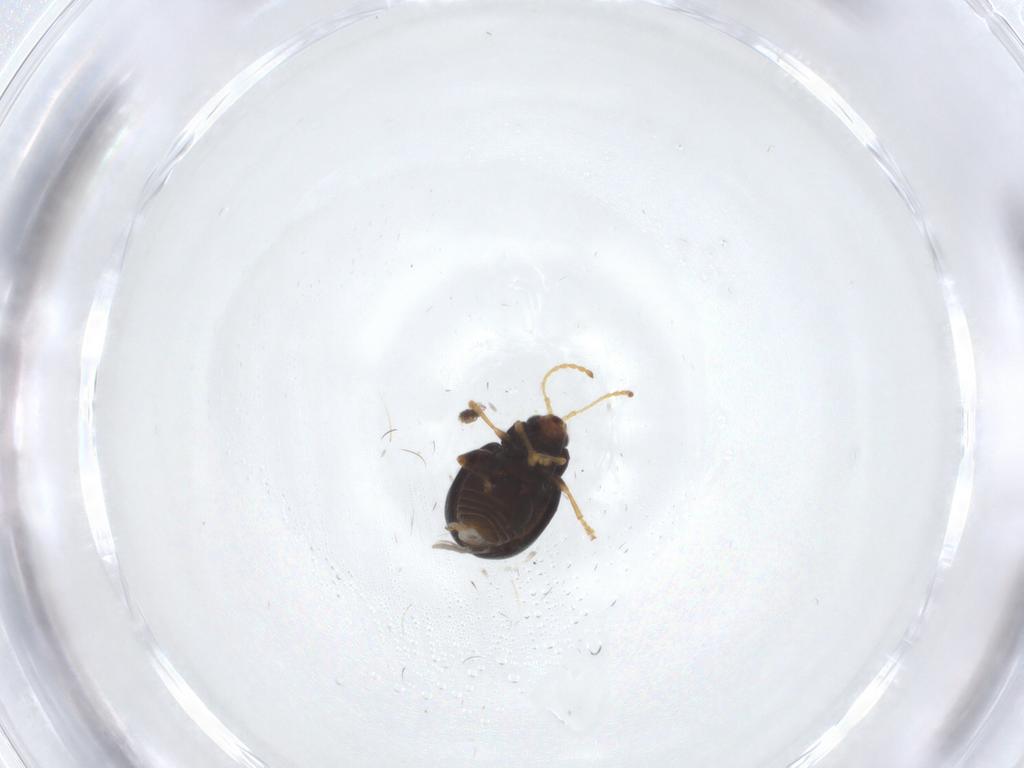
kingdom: Animalia
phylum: Arthropoda
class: Insecta
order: Coleoptera
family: Chrysomelidae
